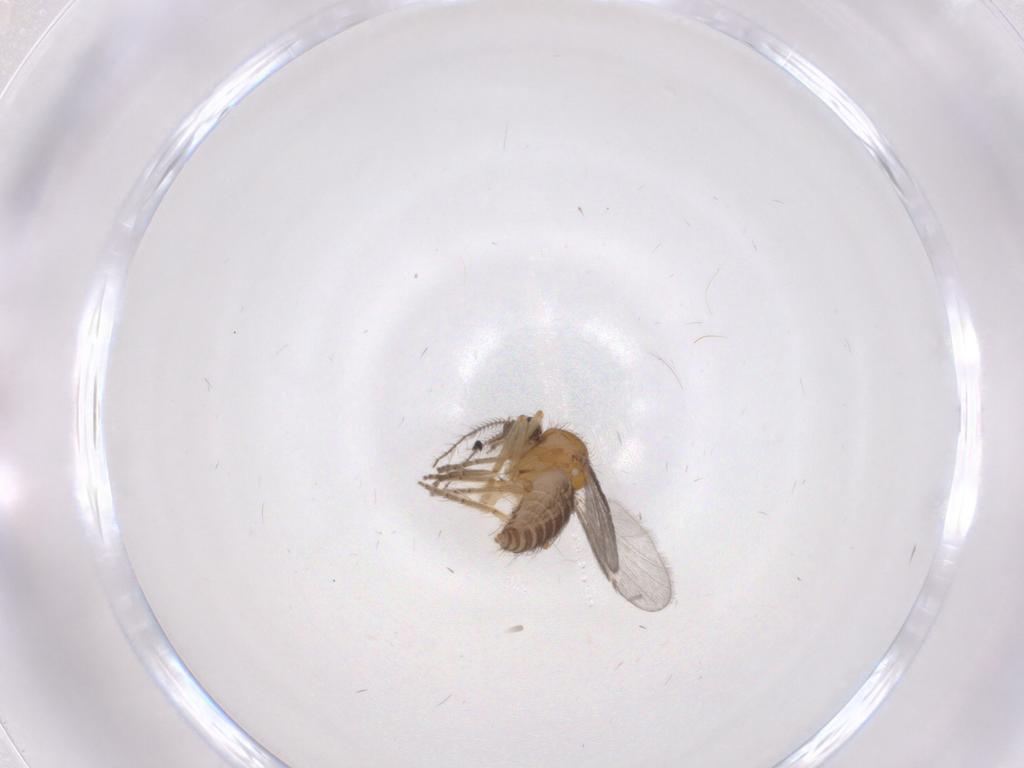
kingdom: Animalia
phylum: Arthropoda
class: Insecta
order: Diptera
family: Ceratopogonidae
